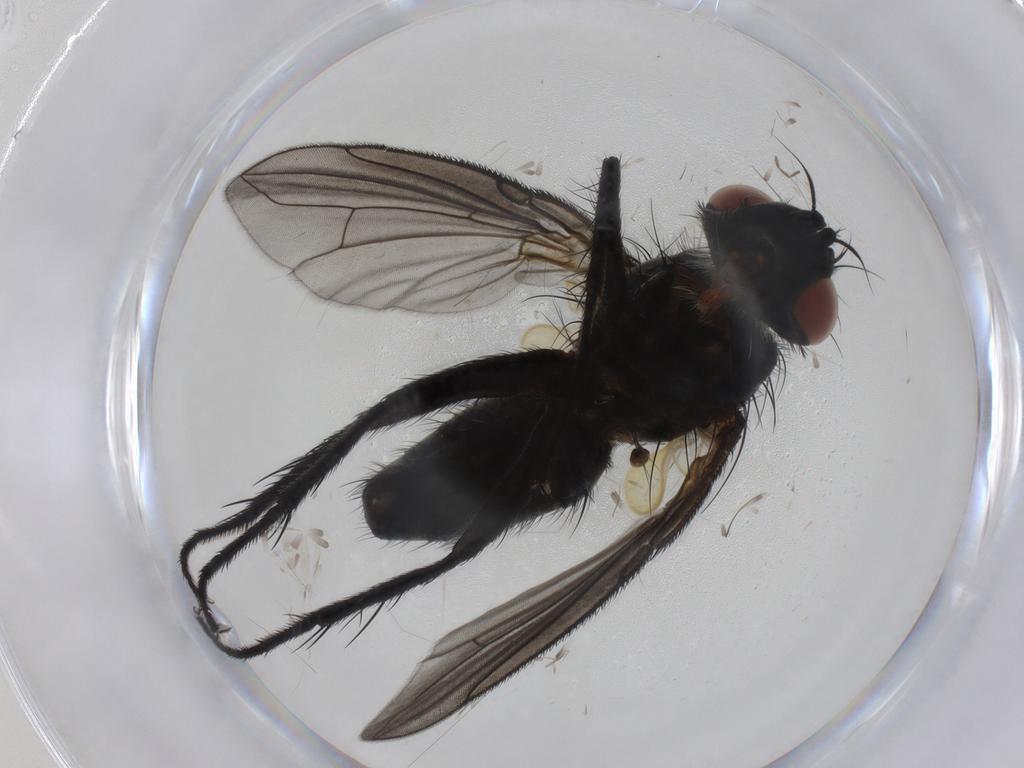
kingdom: Animalia
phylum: Arthropoda
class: Insecta
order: Diptera
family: Tachinidae
